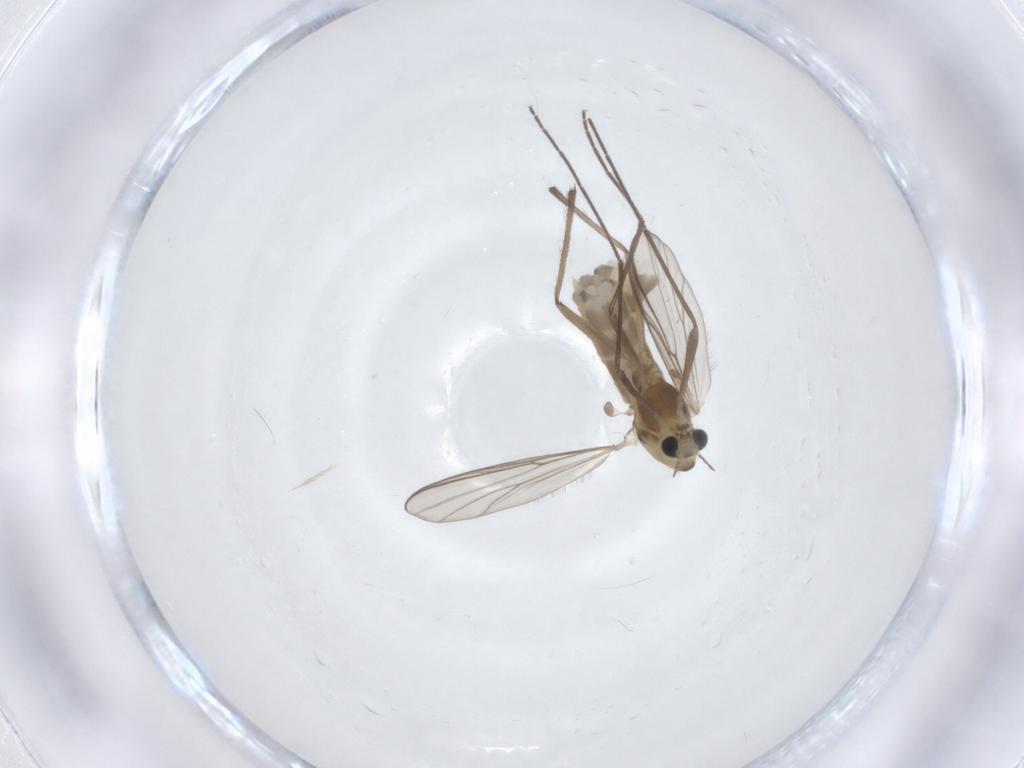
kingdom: Animalia
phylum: Arthropoda
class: Insecta
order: Diptera
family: Chironomidae
